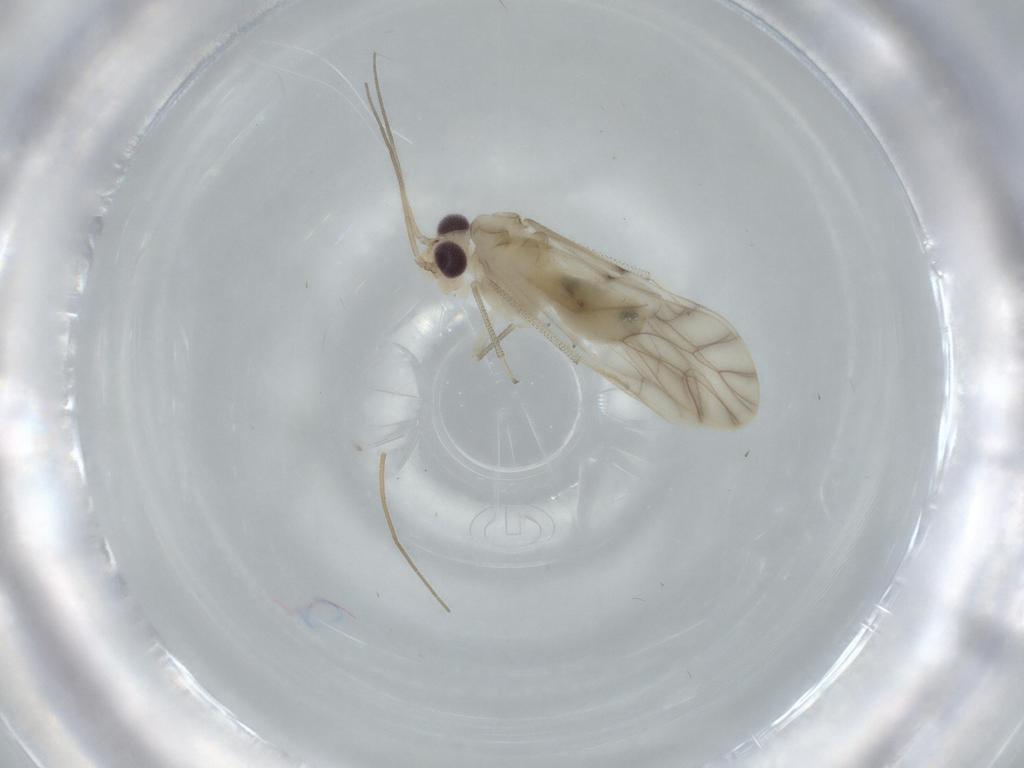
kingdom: Animalia
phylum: Arthropoda
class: Insecta
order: Psocodea
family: Caeciliusidae
